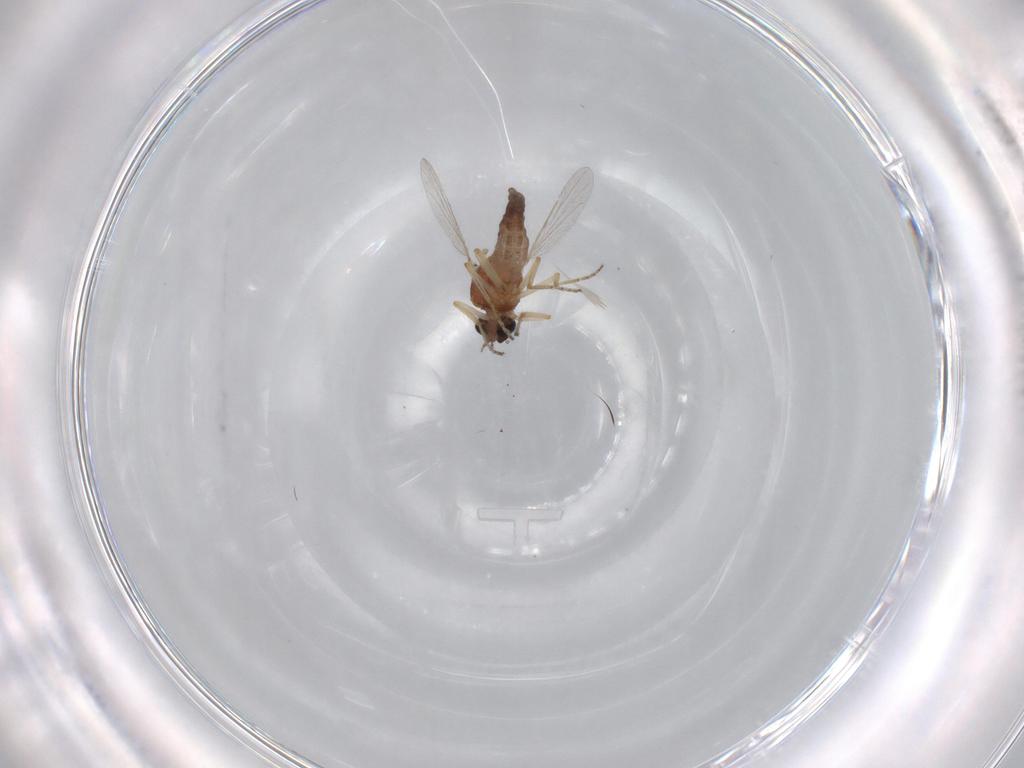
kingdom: Animalia
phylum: Arthropoda
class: Insecta
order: Diptera
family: Ceratopogonidae
